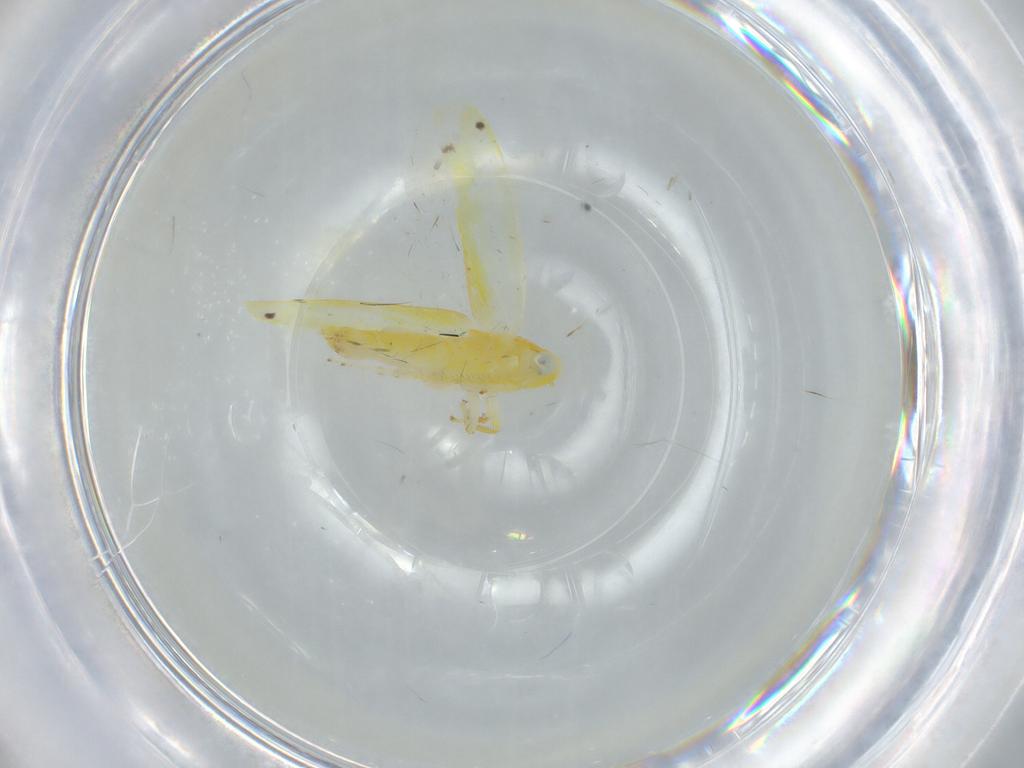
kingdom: Animalia
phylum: Arthropoda
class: Insecta
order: Hemiptera
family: Cicadellidae
